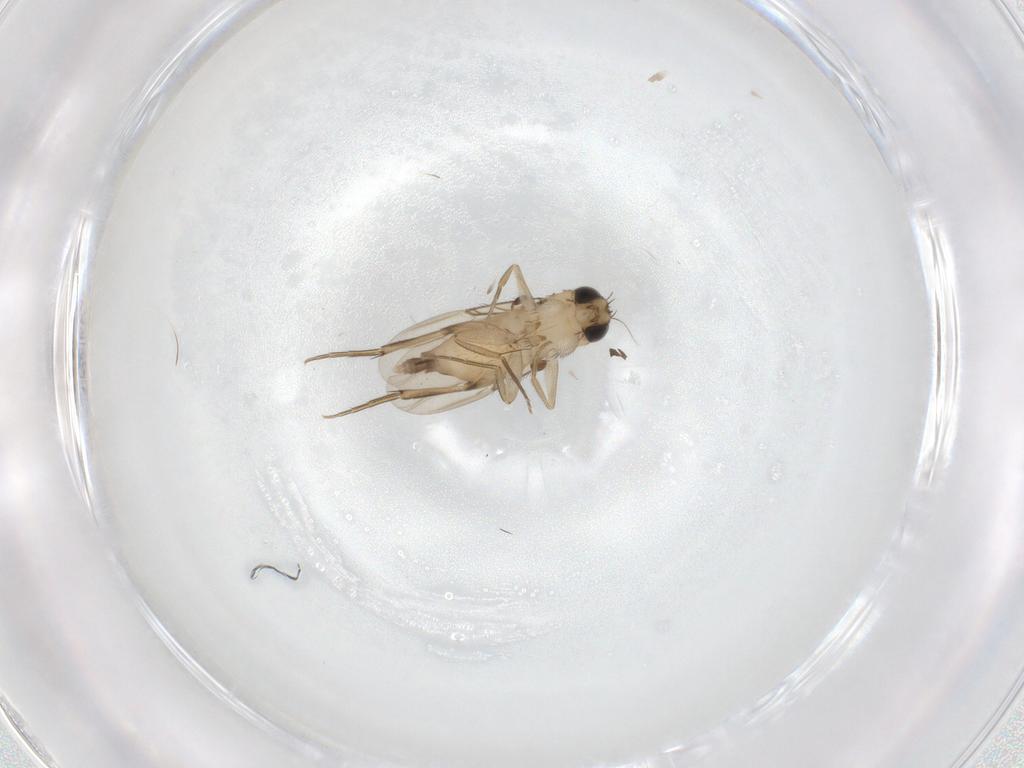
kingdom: Animalia
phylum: Arthropoda
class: Insecta
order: Diptera
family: Phoridae
